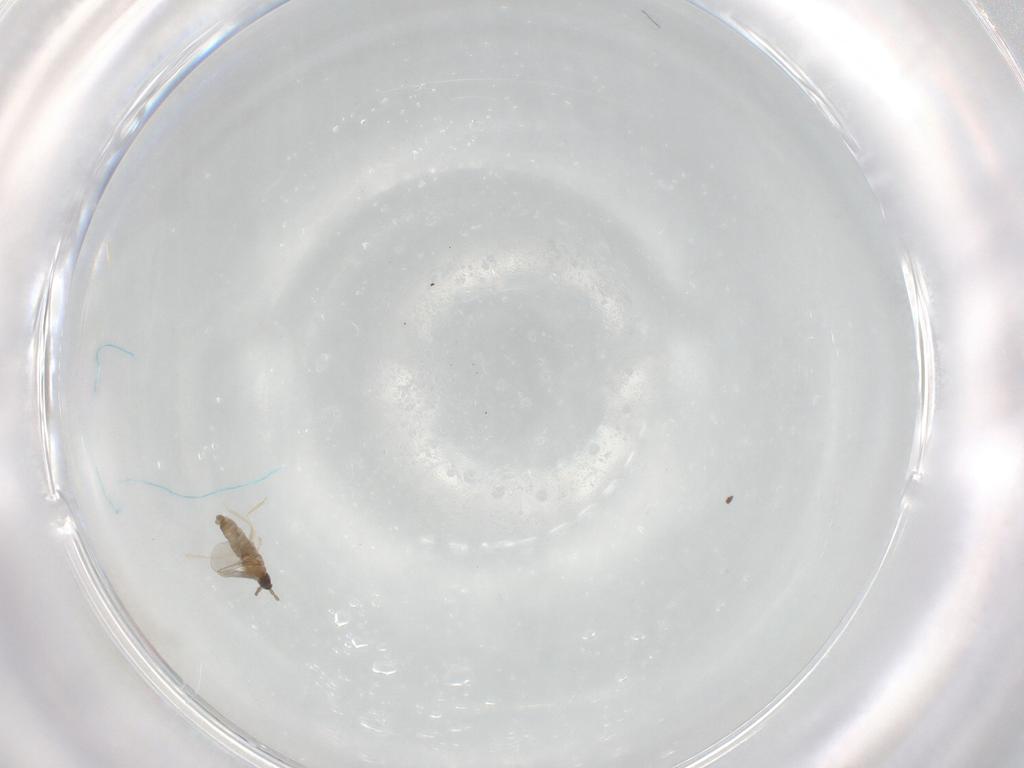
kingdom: Animalia
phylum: Arthropoda
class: Insecta
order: Diptera
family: Cecidomyiidae
